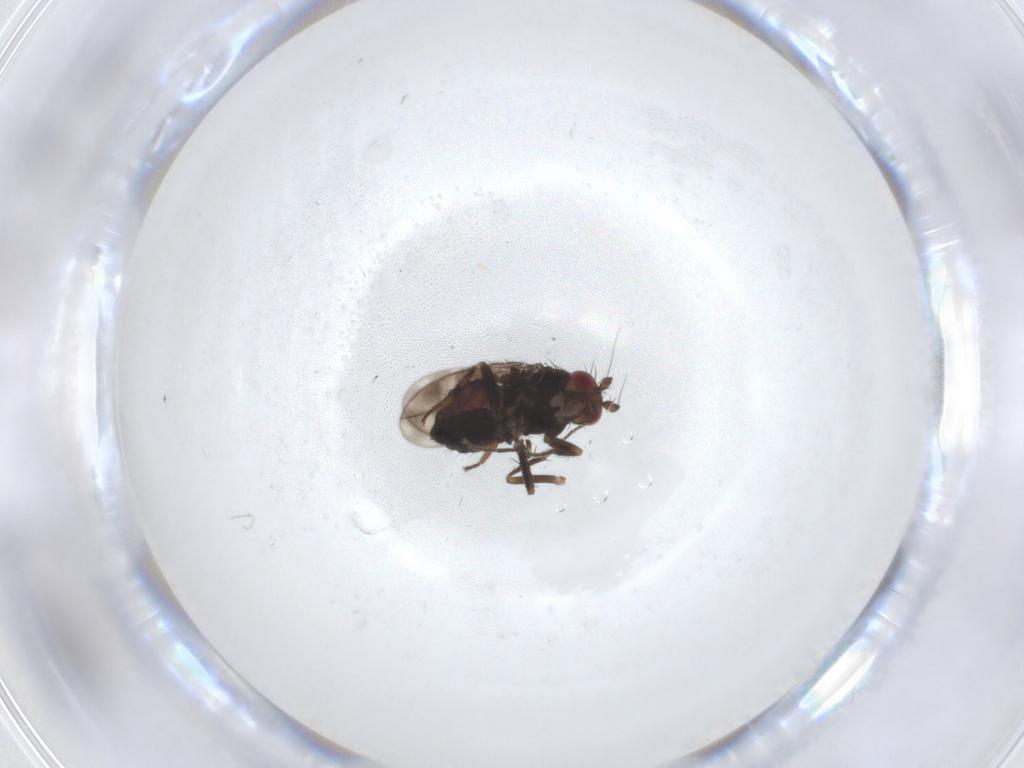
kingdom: Animalia
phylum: Arthropoda
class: Insecta
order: Diptera
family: Sphaeroceridae
